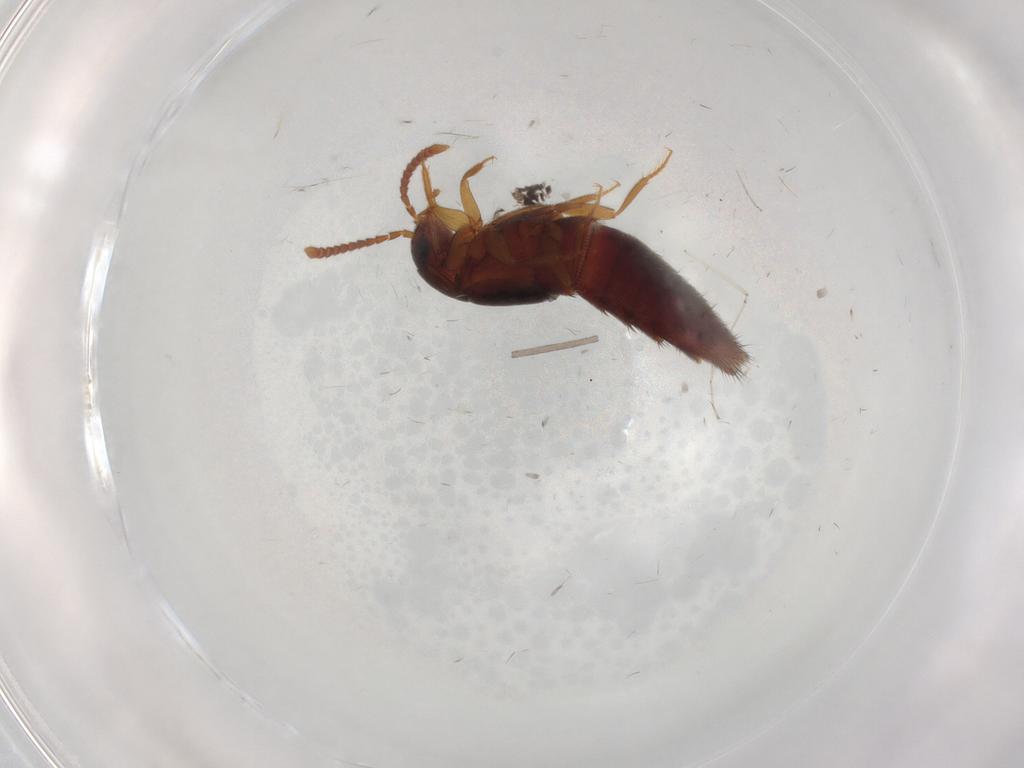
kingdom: Animalia
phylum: Arthropoda
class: Insecta
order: Coleoptera
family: Staphylinidae
